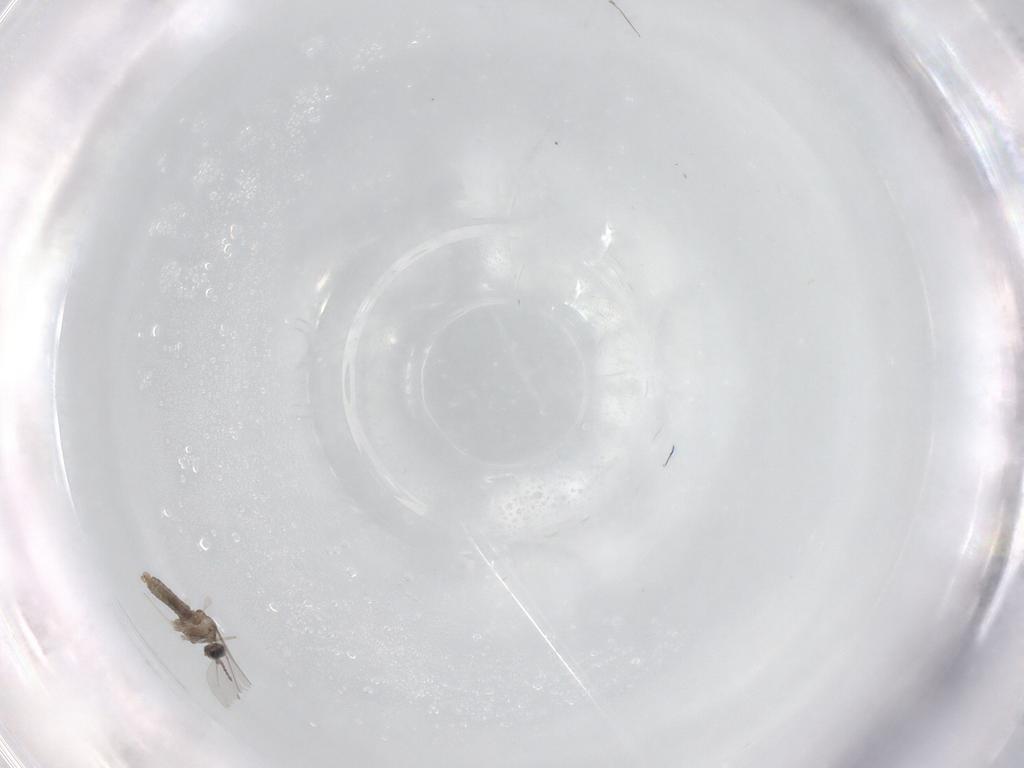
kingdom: Animalia
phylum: Arthropoda
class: Insecta
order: Diptera
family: Cecidomyiidae
